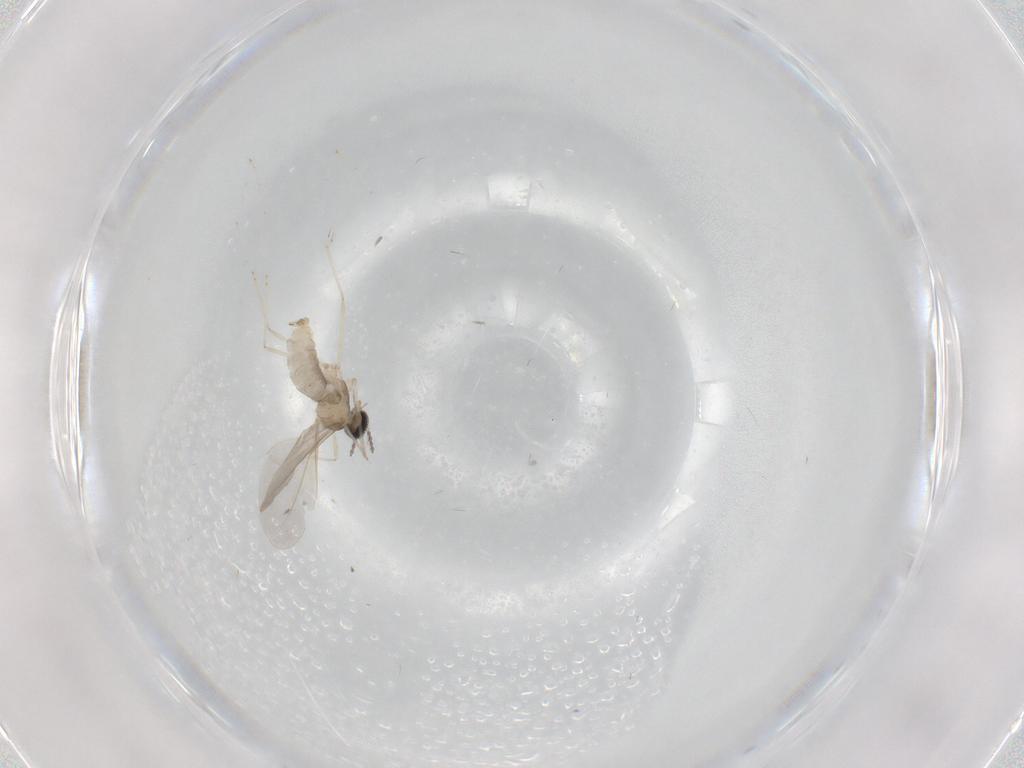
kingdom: Animalia
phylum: Arthropoda
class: Insecta
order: Diptera
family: Cecidomyiidae
